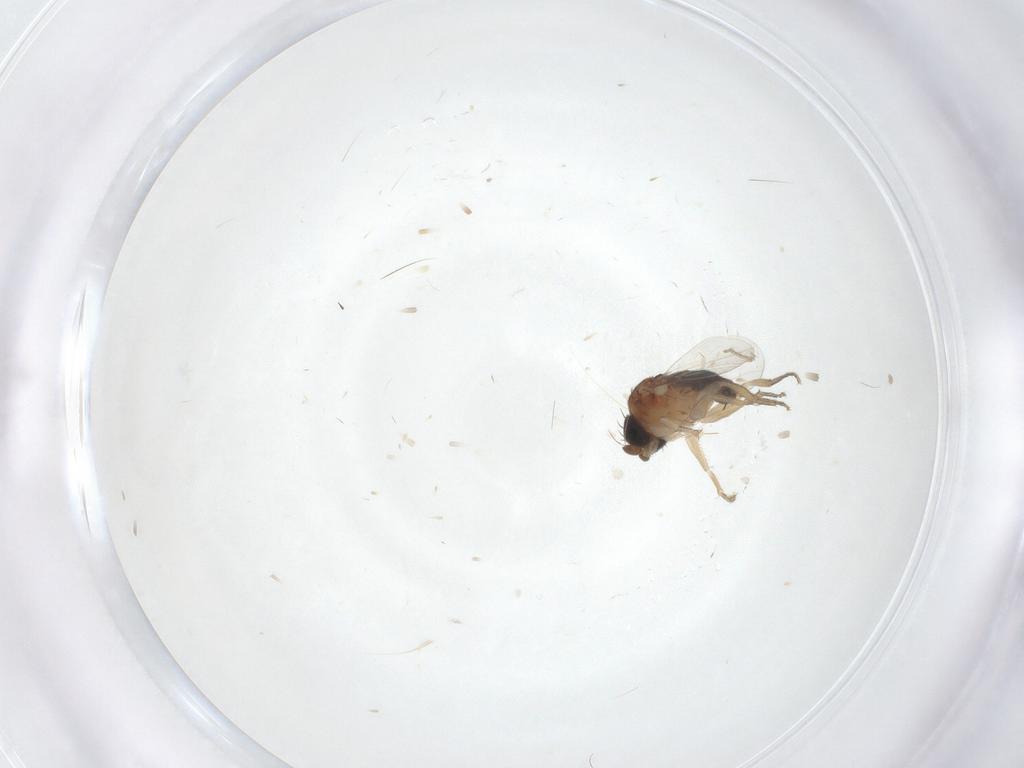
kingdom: Animalia
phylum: Arthropoda
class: Insecta
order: Diptera
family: Phoridae
